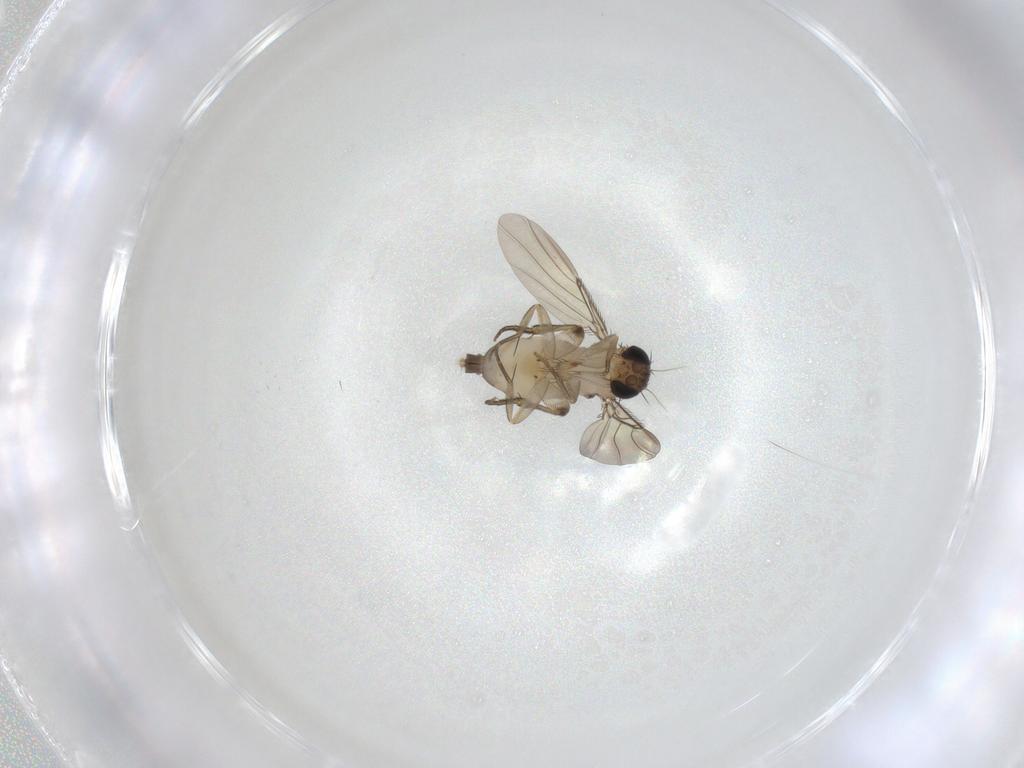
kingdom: Animalia
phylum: Arthropoda
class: Insecta
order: Diptera
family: Phoridae
